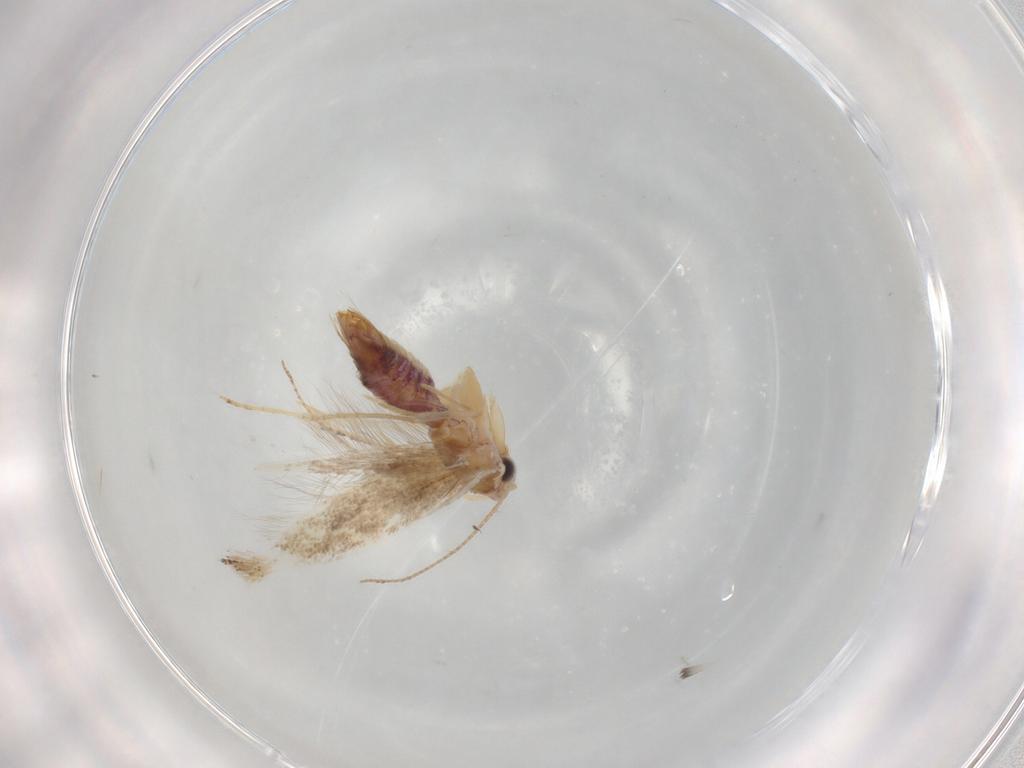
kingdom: Animalia
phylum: Arthropoda
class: Insecta
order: Lepidoptera
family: Bucculatricidae
